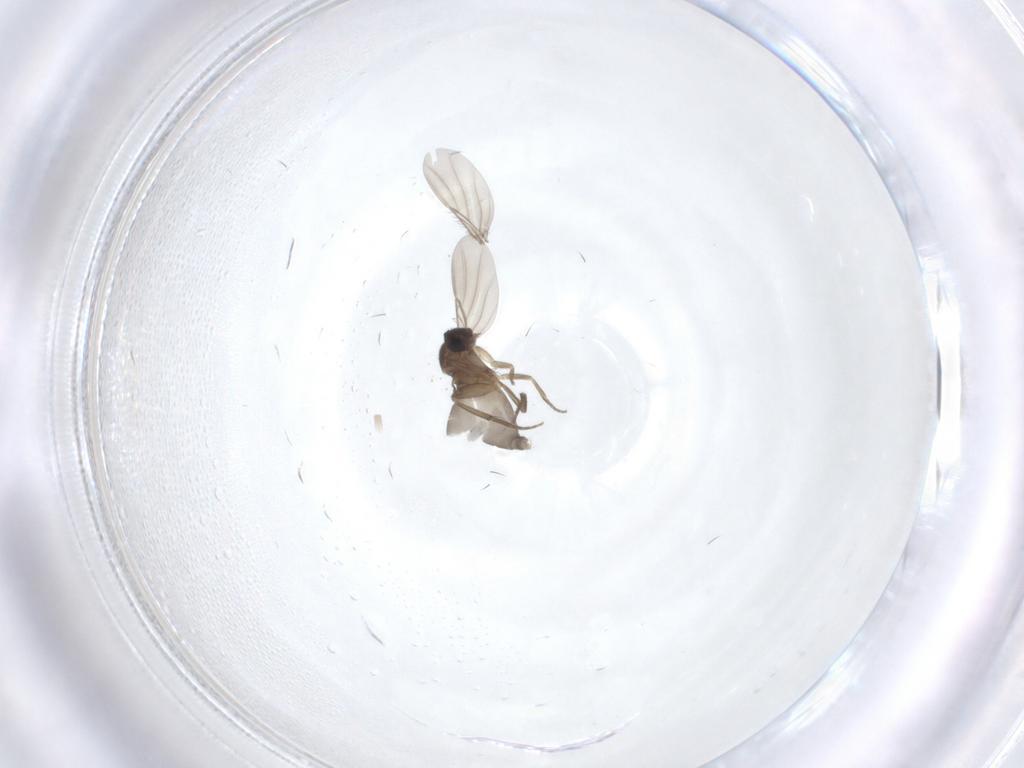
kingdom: Animalia
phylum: Arthropoda
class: Insecta
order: Diptera
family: Phoridae
